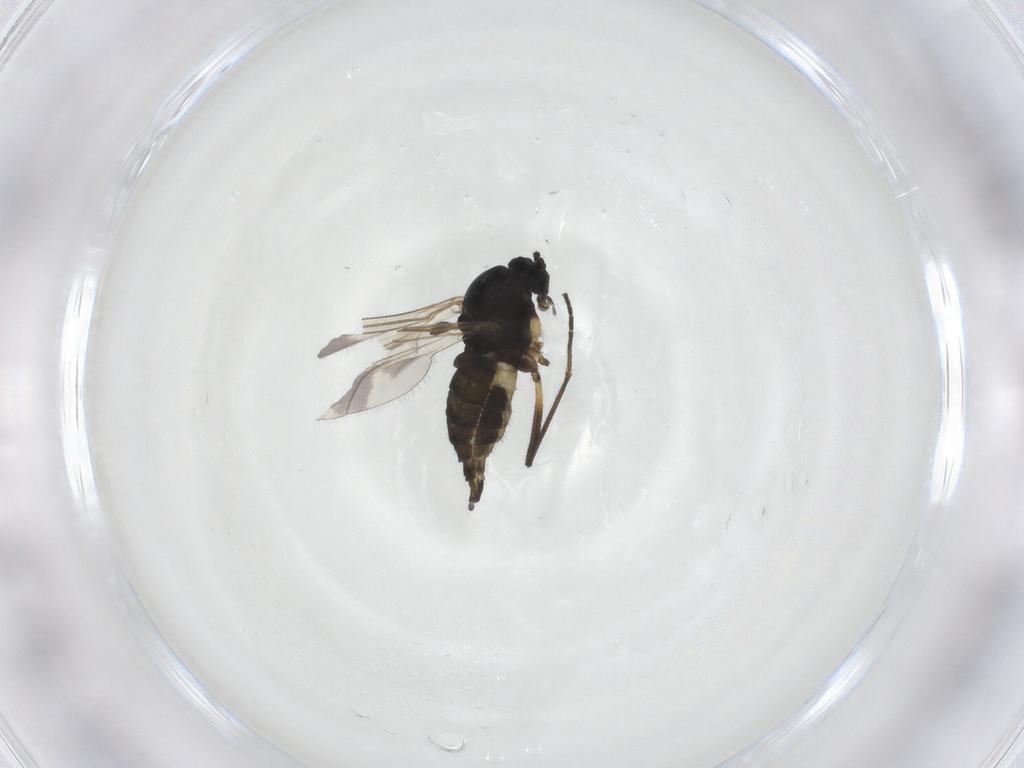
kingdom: Animalia
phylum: Arthropoda
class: Insecta
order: Diptera
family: Sciaridae
